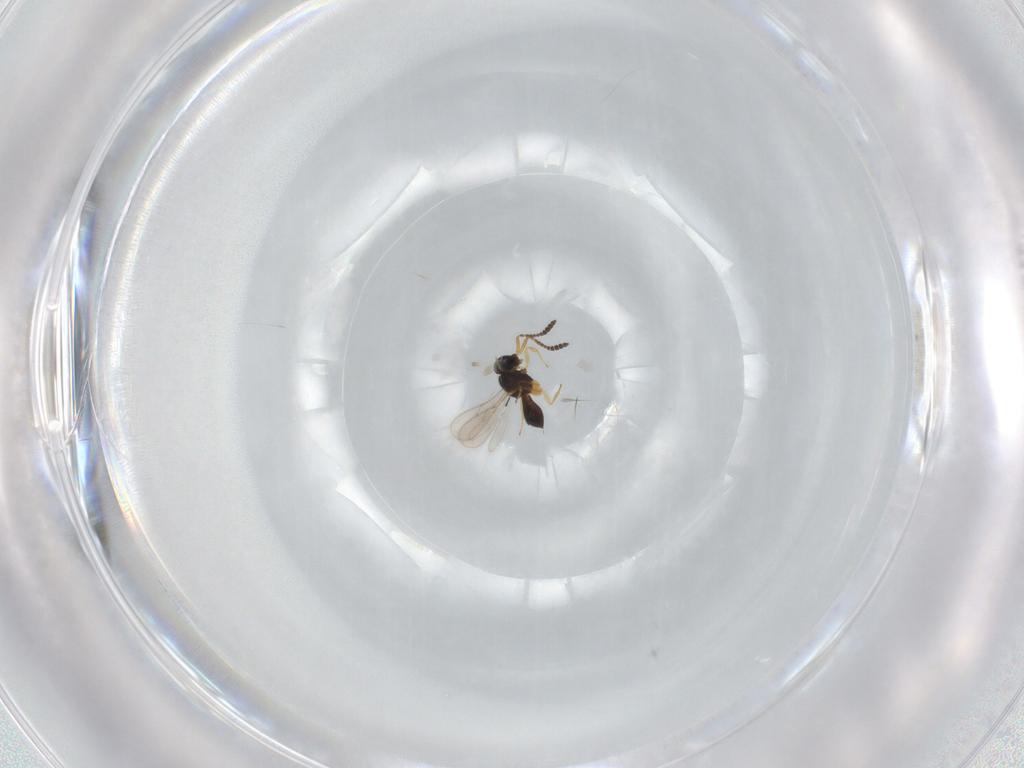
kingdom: Animalia
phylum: Arthropoda
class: Insecta
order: Hymenoptera
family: Scelionidae
